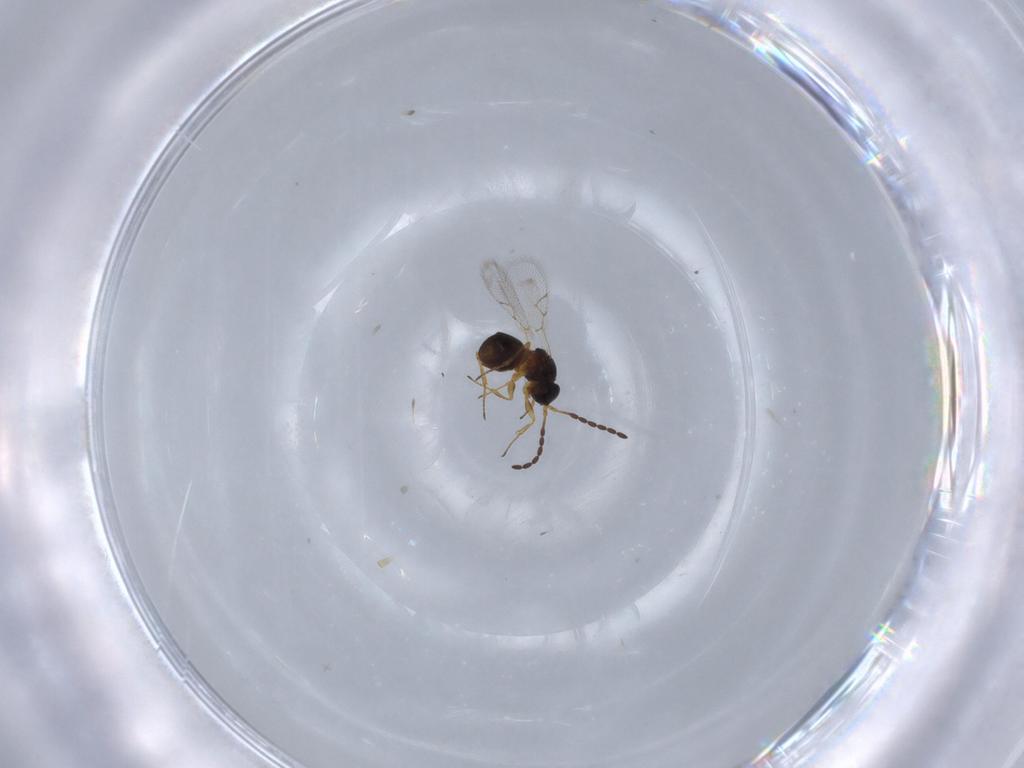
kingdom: Animalia
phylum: Arthropoda
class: Insecta
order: Hymenoptera
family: Figitidae
